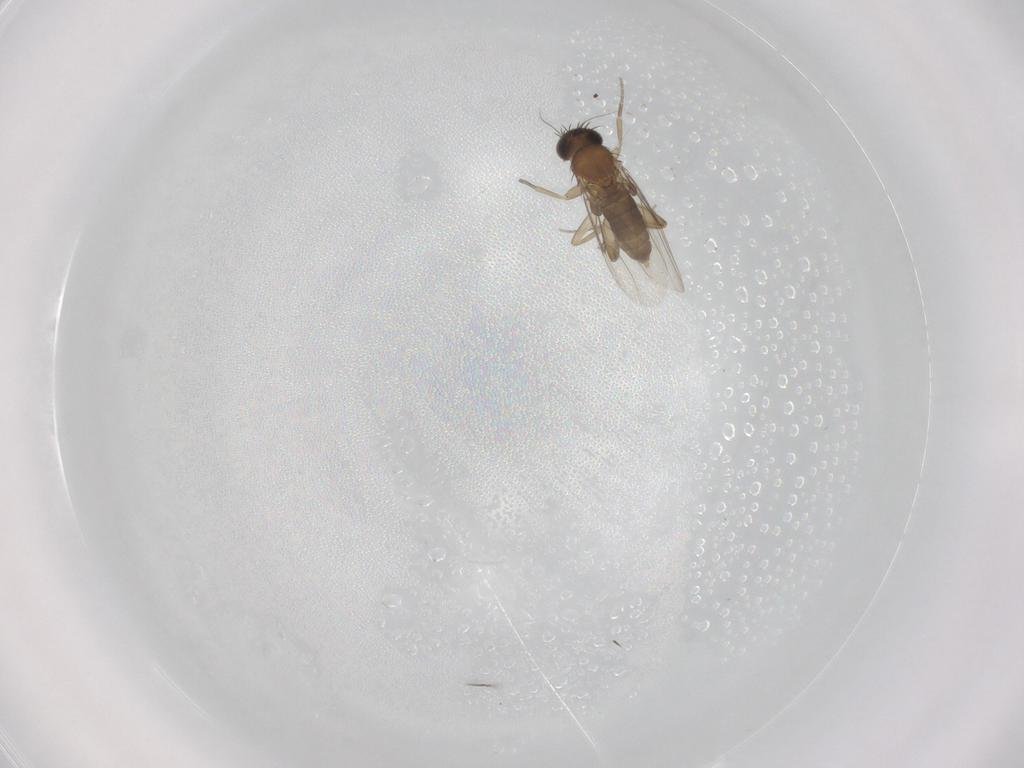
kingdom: Animalia
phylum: Arthropoda
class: Insecta
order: Diptera
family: Phoridae
